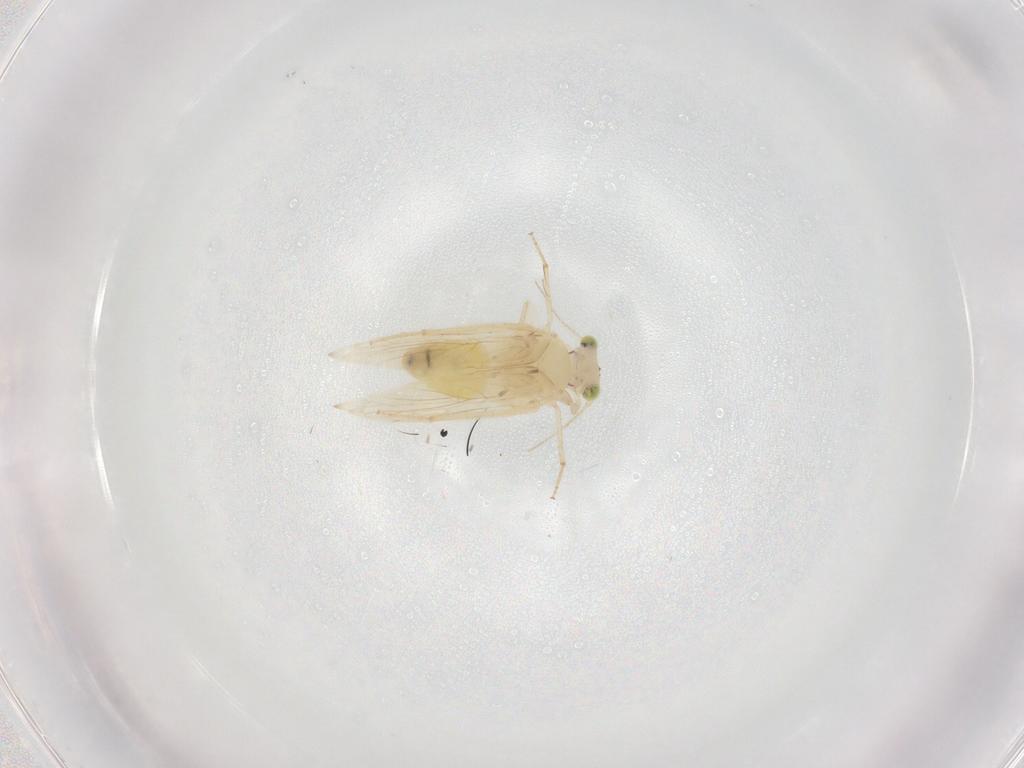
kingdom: Animalia
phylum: Arthropoda
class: Insecta
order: Psocodea
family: Lepidopsocidae
